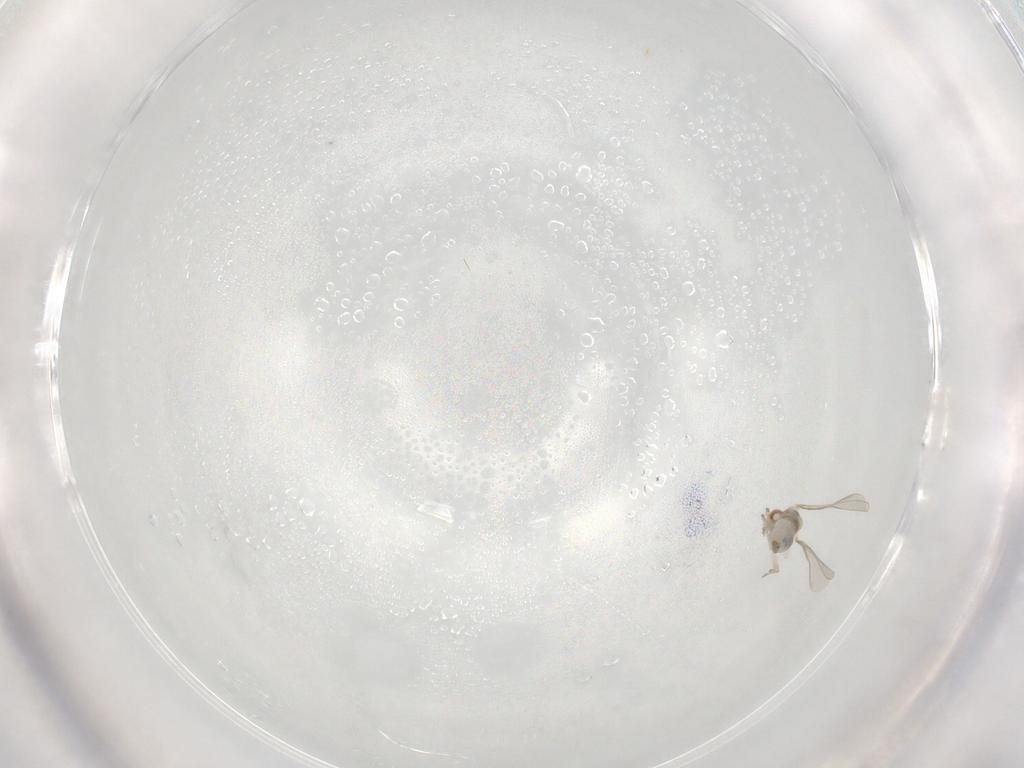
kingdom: Animalia
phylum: Arthropoda
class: Insecta
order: Diptera
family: Chironomidae
